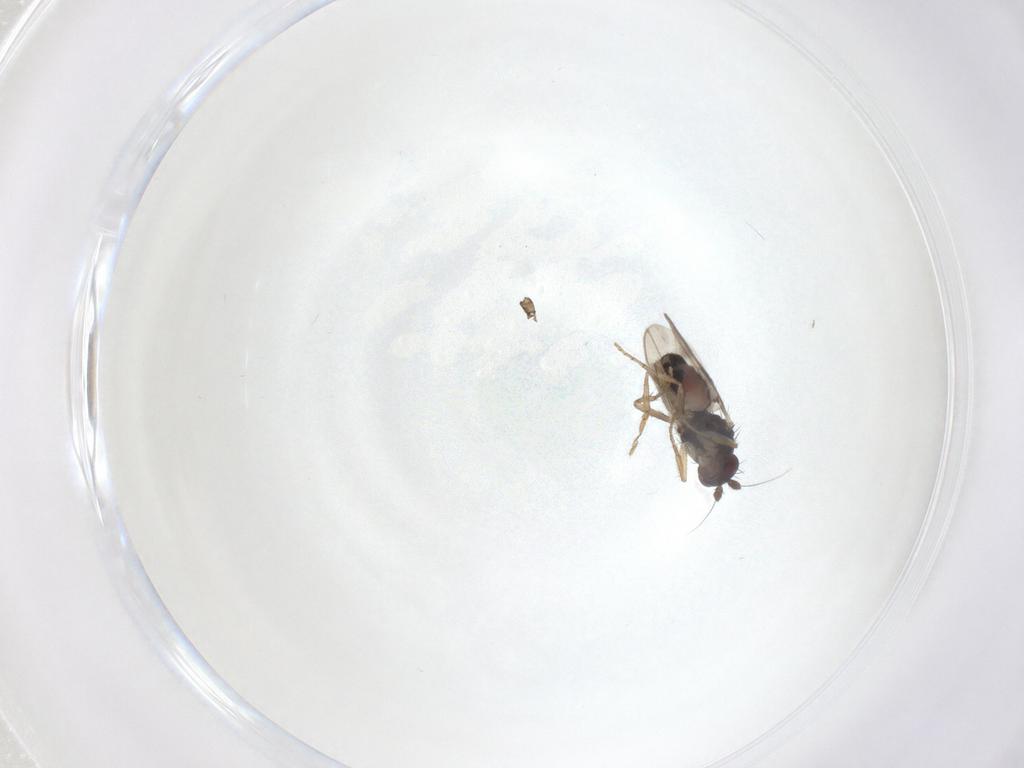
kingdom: Animalia
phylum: Arthropoda
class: Insecta
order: Diptera
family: Sphaeroceridae
